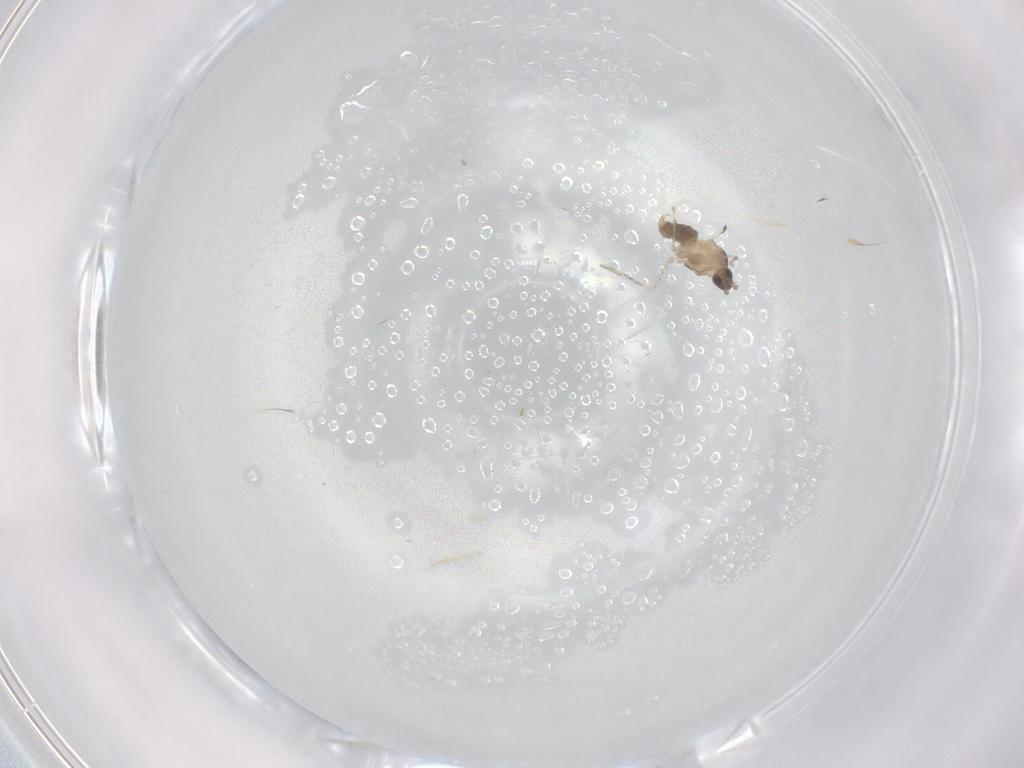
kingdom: Animalia
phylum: Arthropoda
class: Insecta
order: Diptera
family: Cecidomyiidae
